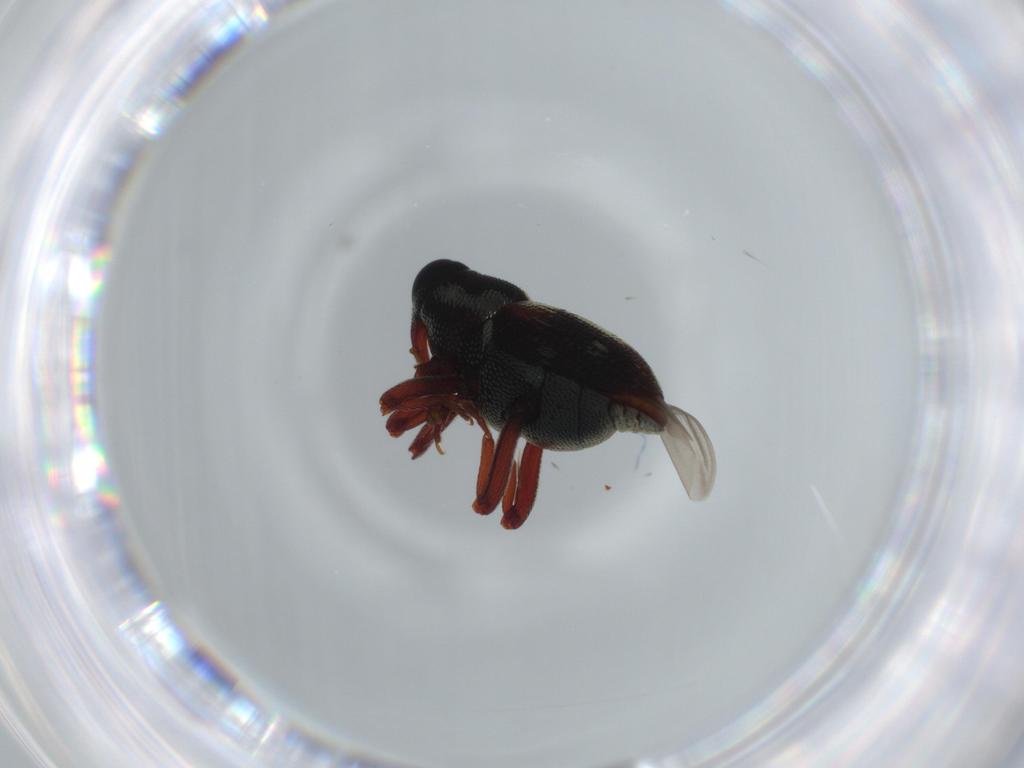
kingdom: Animalia
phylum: Arthropoda
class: Insecta
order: Coleoptera
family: Curculionidae
